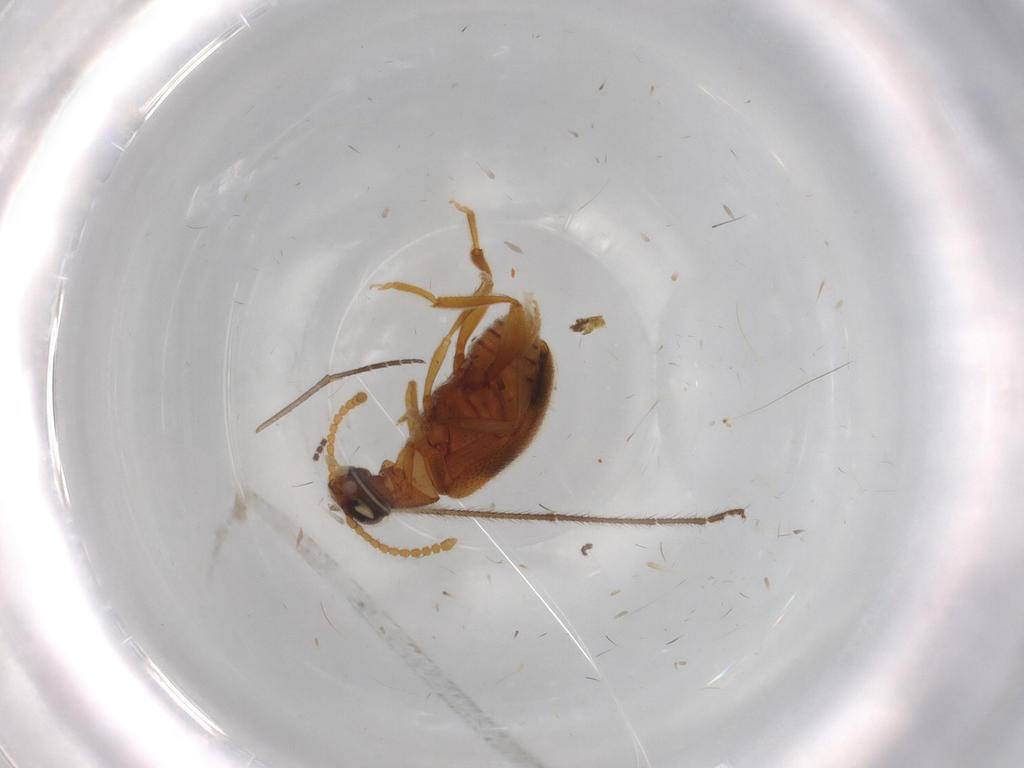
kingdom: Animalia
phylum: Arthropoda
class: Insecta
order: Coleoptera
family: Aderidae
